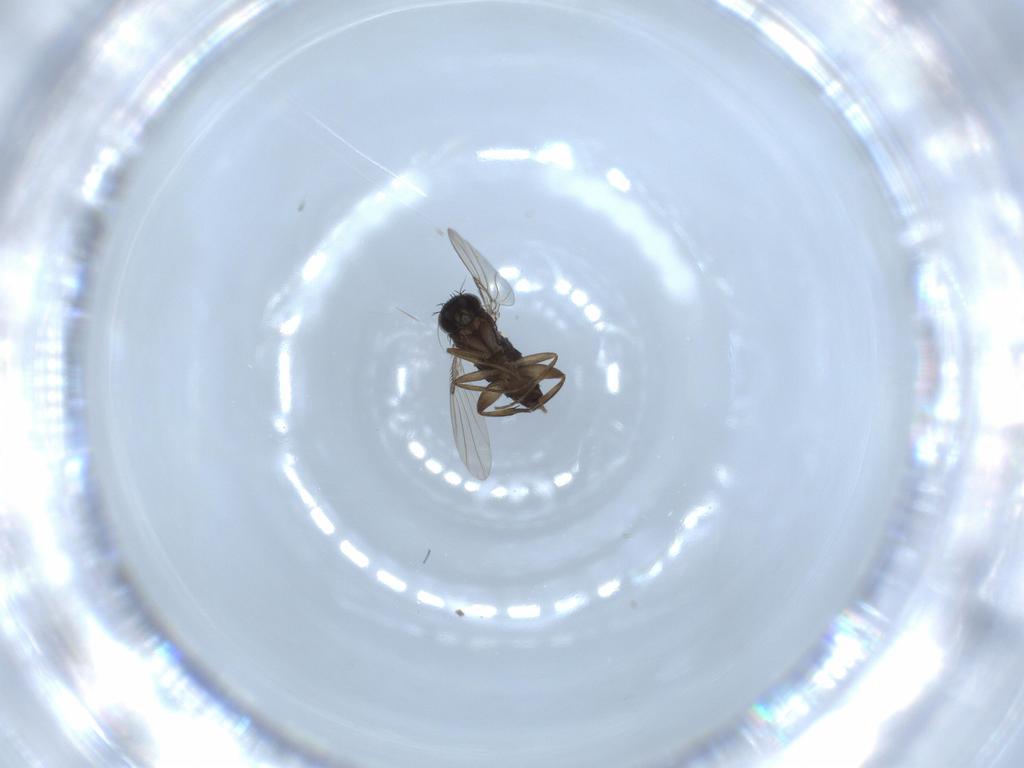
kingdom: Animalia
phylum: Arthropoda
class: Insecta
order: Diptera
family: Phoridae
